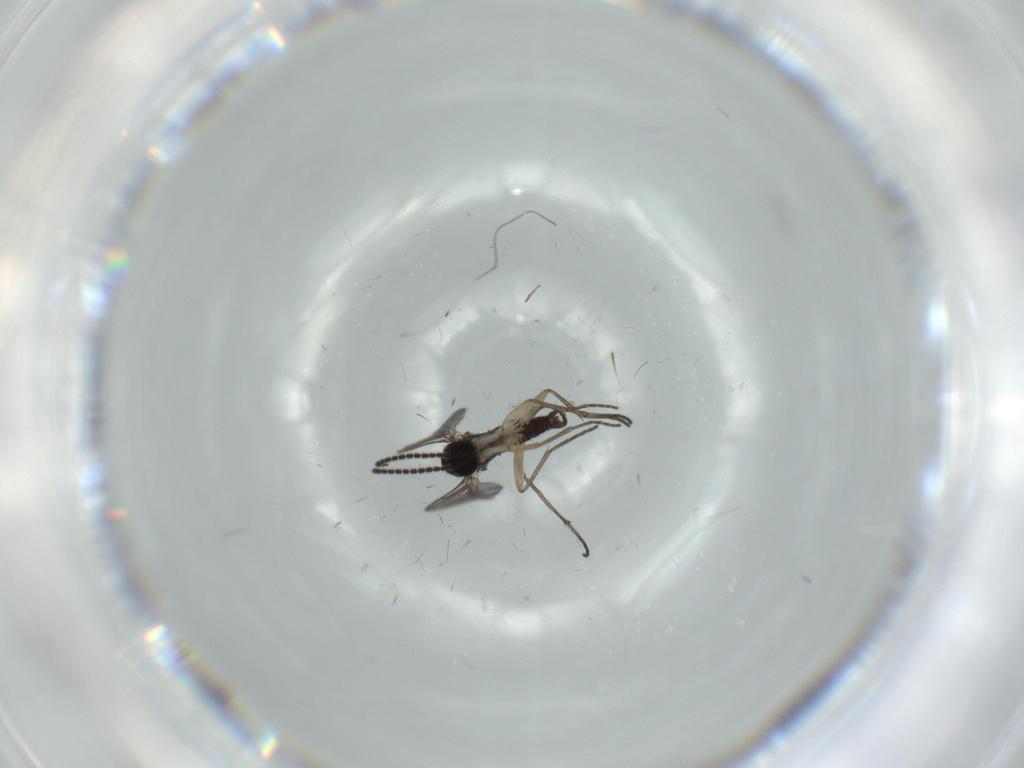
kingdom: Animalia
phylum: Arthropoda
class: Insecta
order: Diptera
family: Sciaridae
